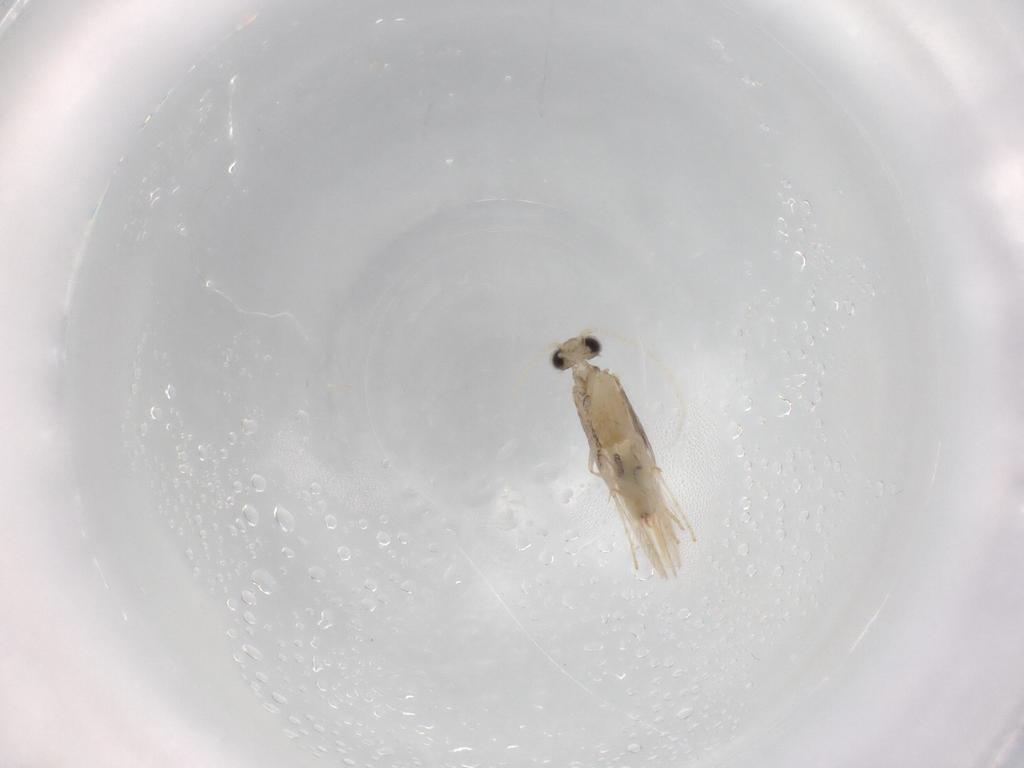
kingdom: Animalia
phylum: Arthropoda
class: Insecta
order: Trichoptera
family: Hydroptilidae
